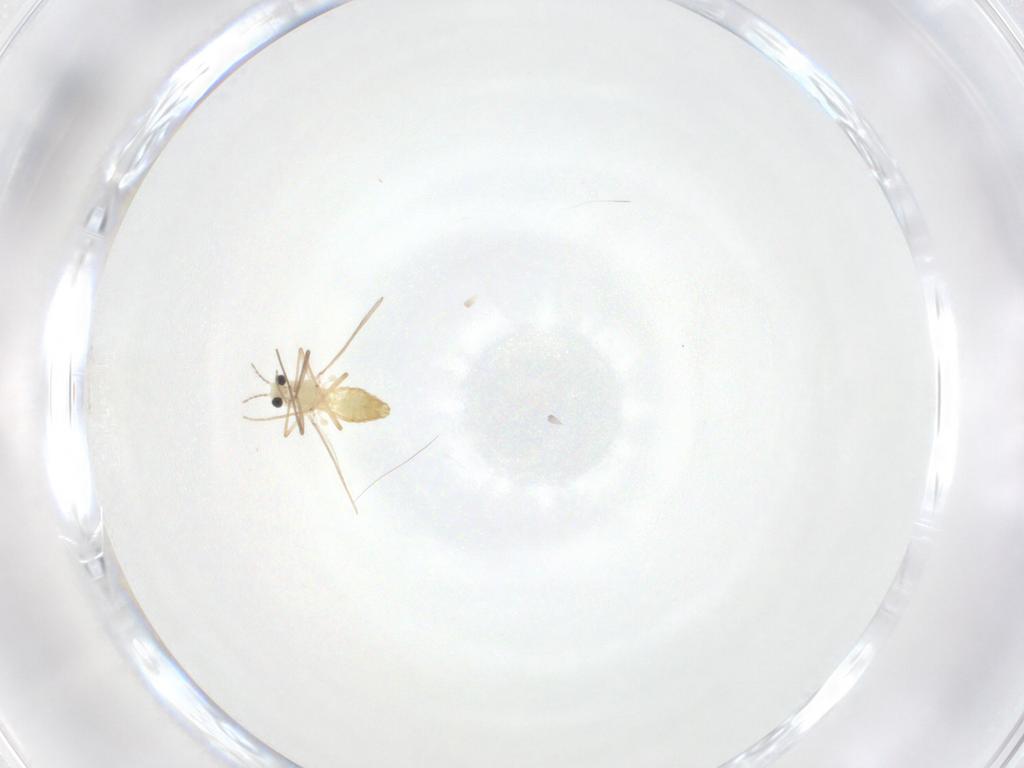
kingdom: Animalia
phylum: Arthropoda
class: Insecta
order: Diptera
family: Chironomidae
